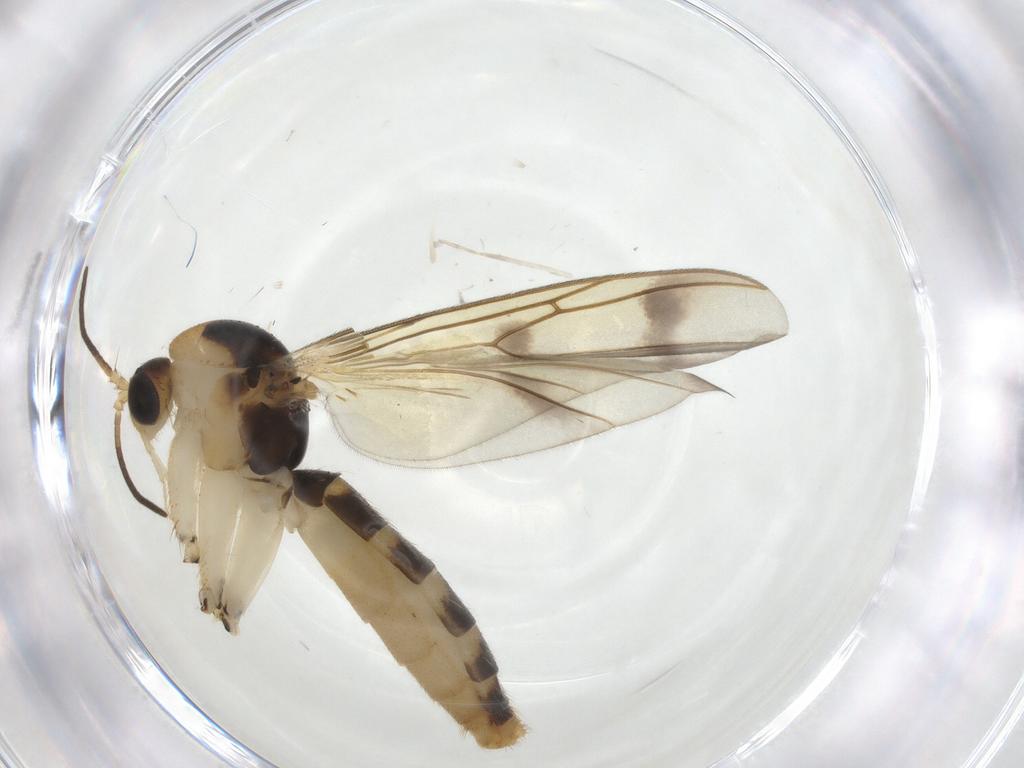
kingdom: Animalia
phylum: Arthropoda
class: Insecta
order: Diptera
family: Mycetophilidae
